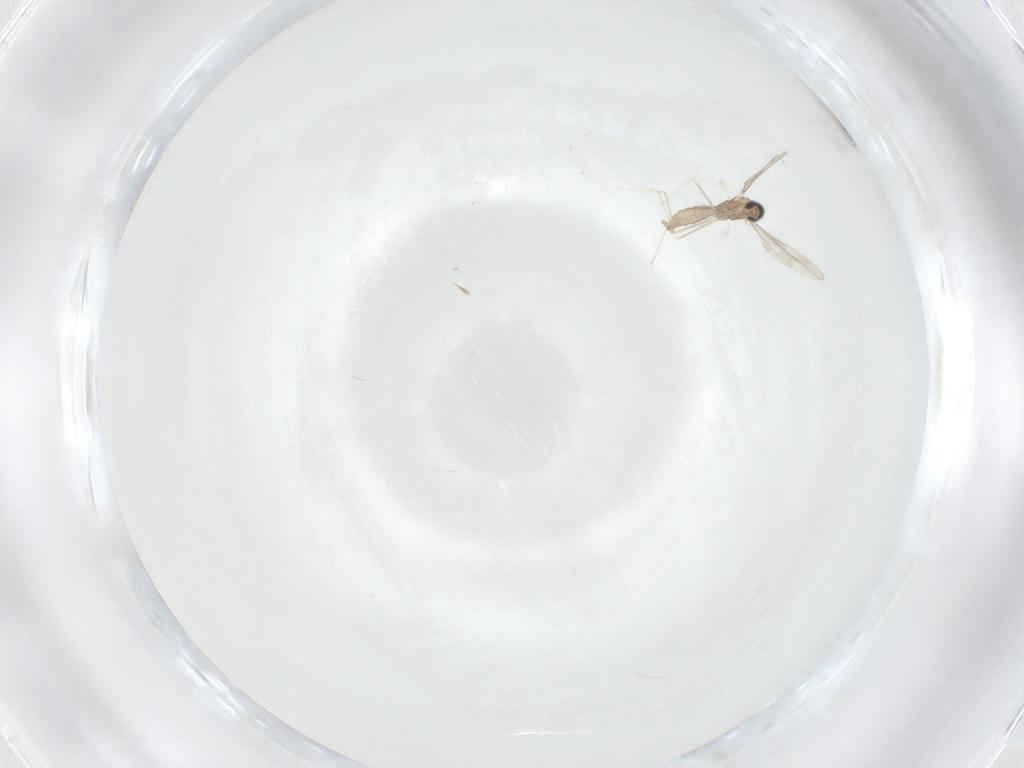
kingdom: Animalia
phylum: Arthropoda
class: Insecta
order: Diptera
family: Cecidomyiidae
